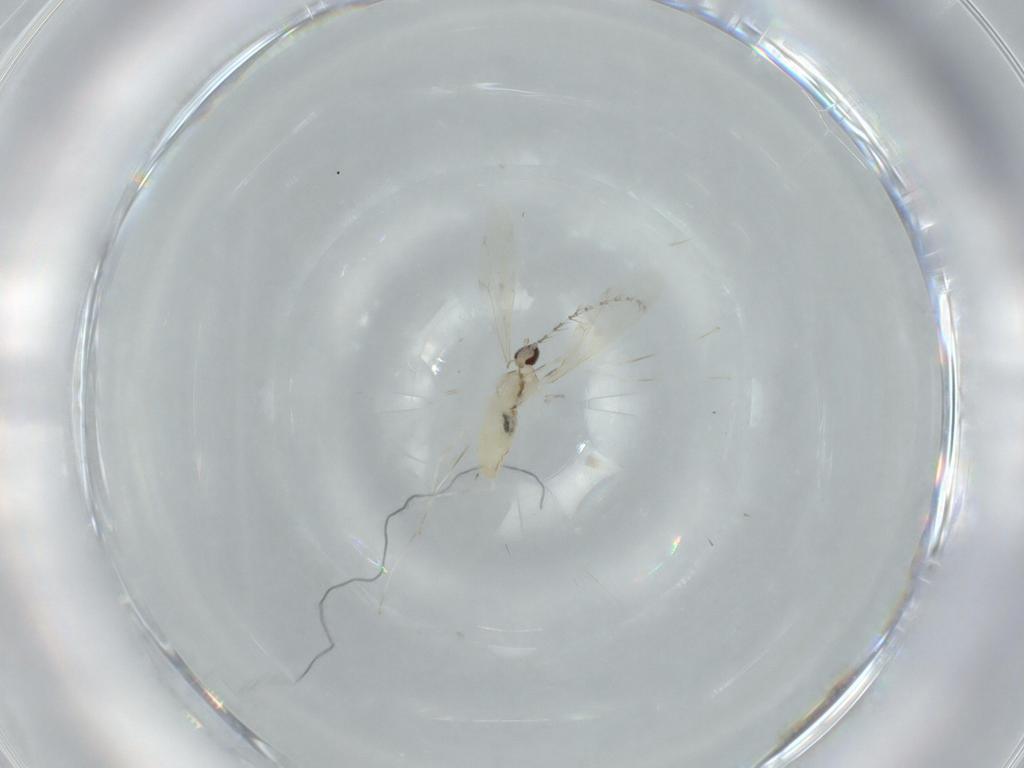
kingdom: Animalia
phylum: Arthropoda
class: Insecta
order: Diptera
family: Cecidomyiidae
